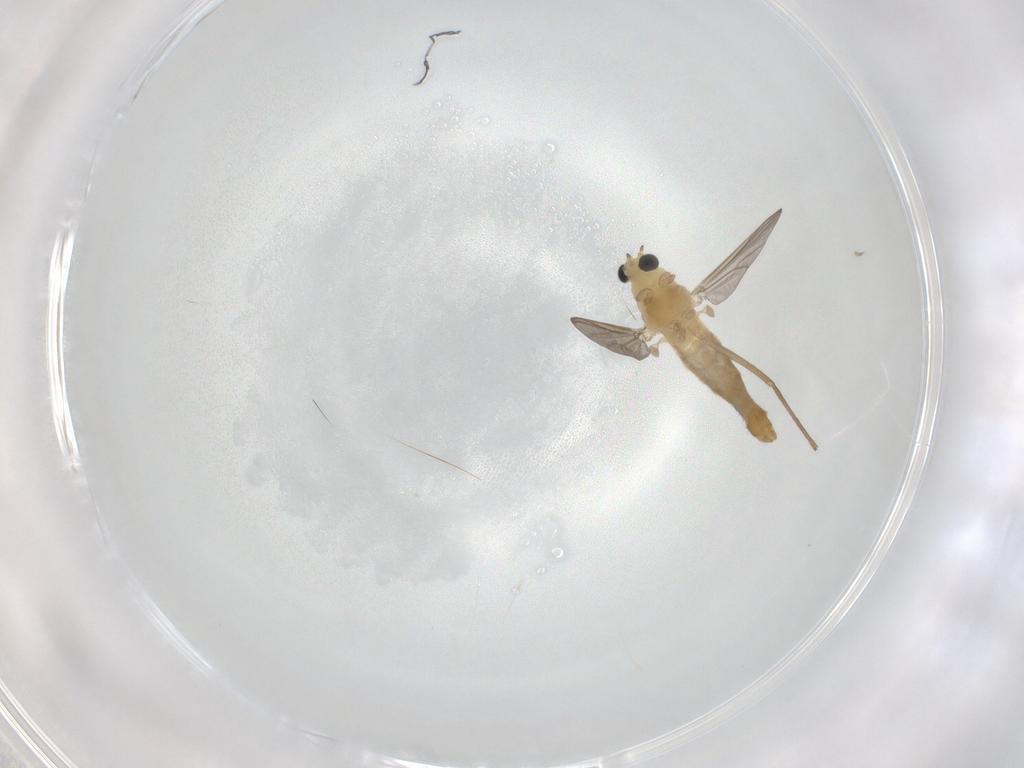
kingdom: Animalia
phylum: Arthropoda
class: Insecta
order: Diptera
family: Chironomidae
